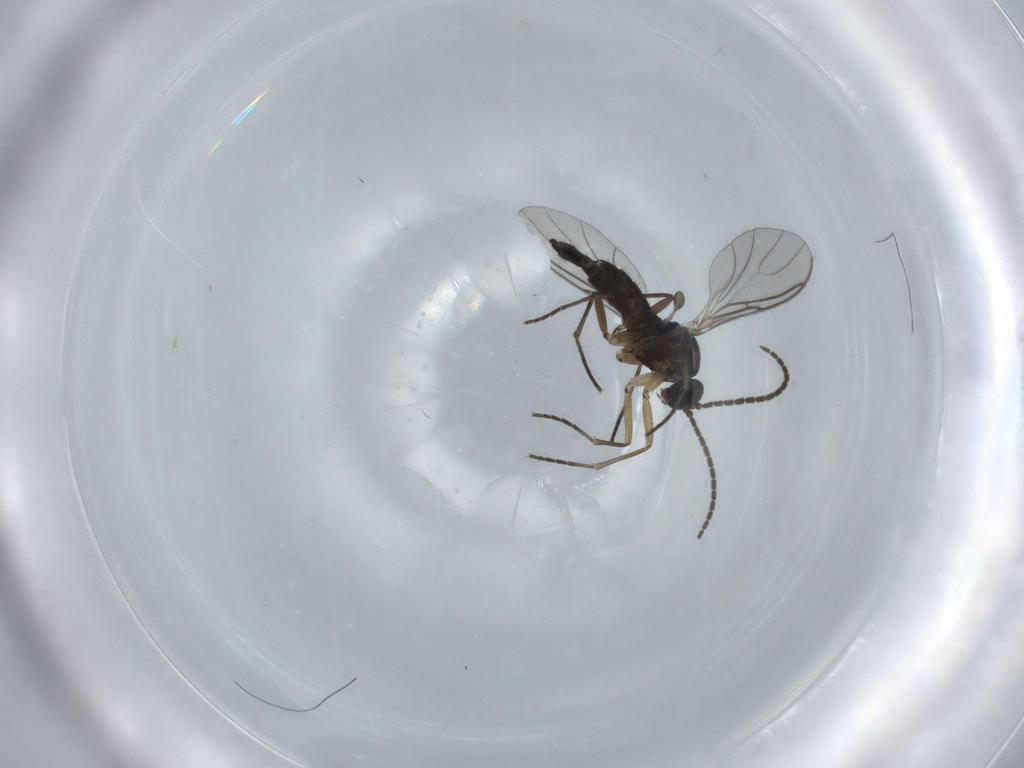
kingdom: Animalia
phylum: Arthropoda
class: Insecta
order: Diptera
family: Sciaridae
